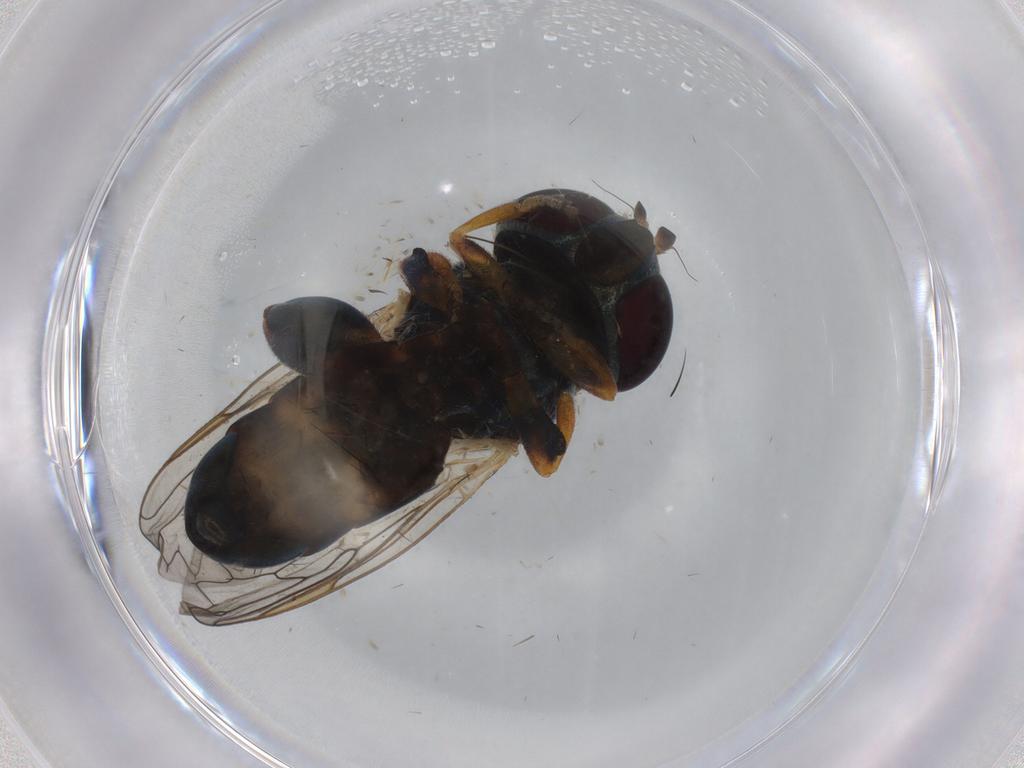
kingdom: Animalia
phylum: Arthropoda
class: Insecta
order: Diptera
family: Syrphidae
